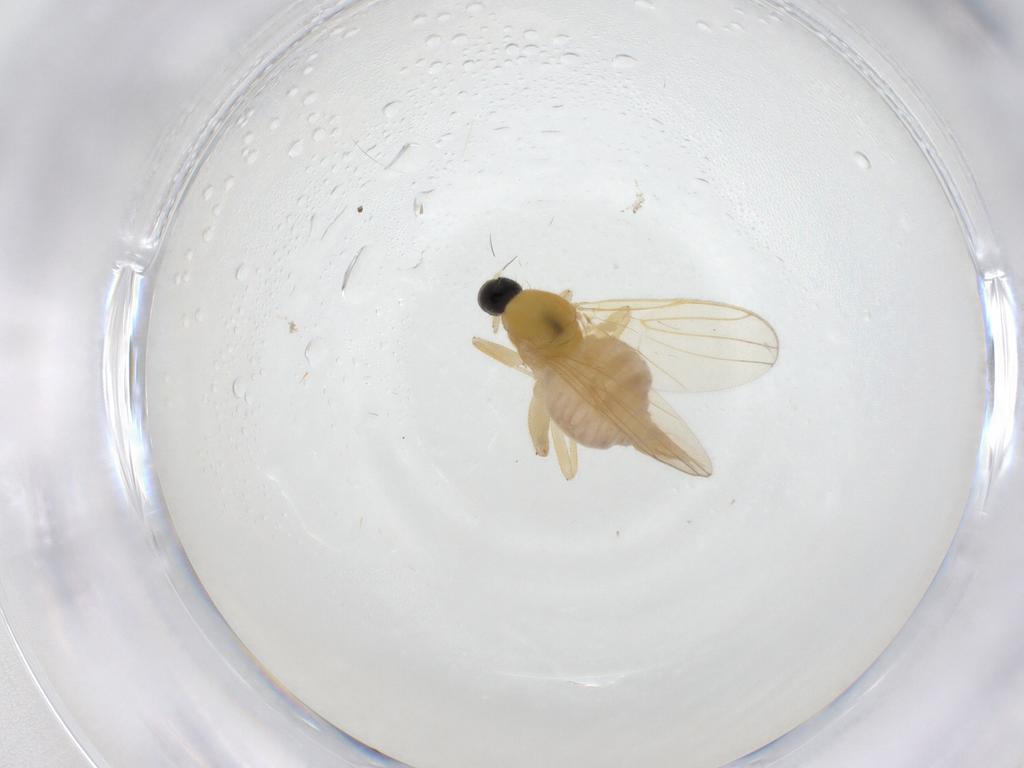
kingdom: Animalia
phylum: Arthropoda
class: Insecta
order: Diptera
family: Hybotidae
